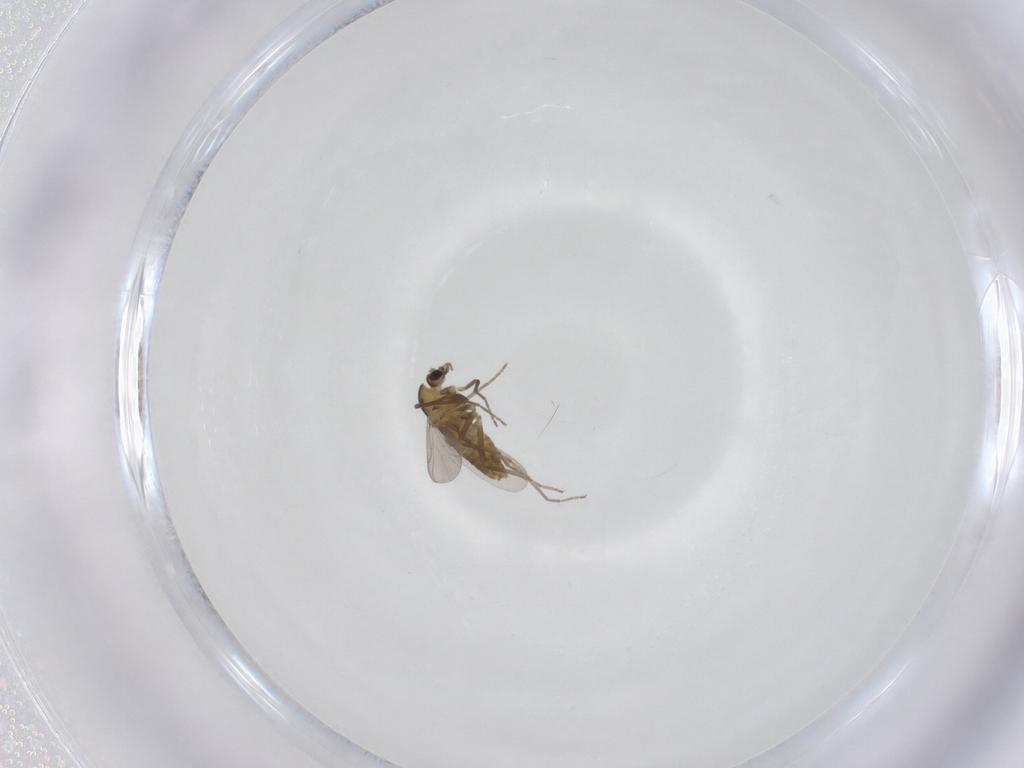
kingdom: Animalia
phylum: Arthropoda
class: Insecta
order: Diptera
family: Chironomidae
